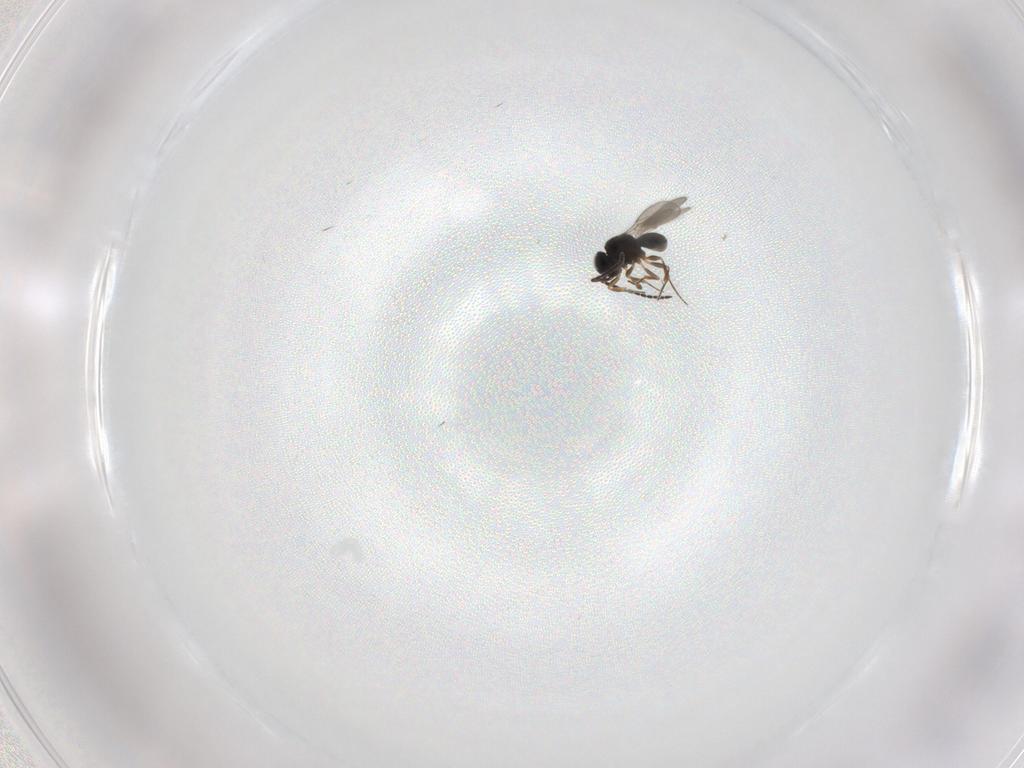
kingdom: Animalia
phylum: Arthropoda
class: Insecta
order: Hymenoptera
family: Scelionidae
